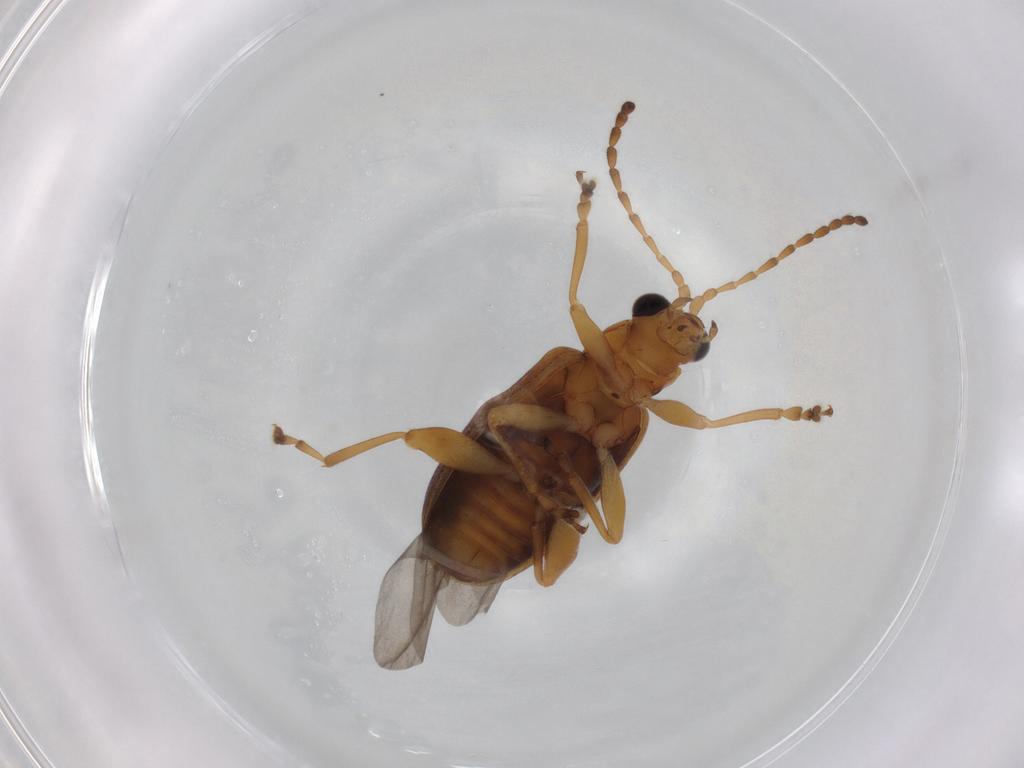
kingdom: Animalia
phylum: Arthropoda
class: Insecta
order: Coleoptera
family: Chrysomelidae
